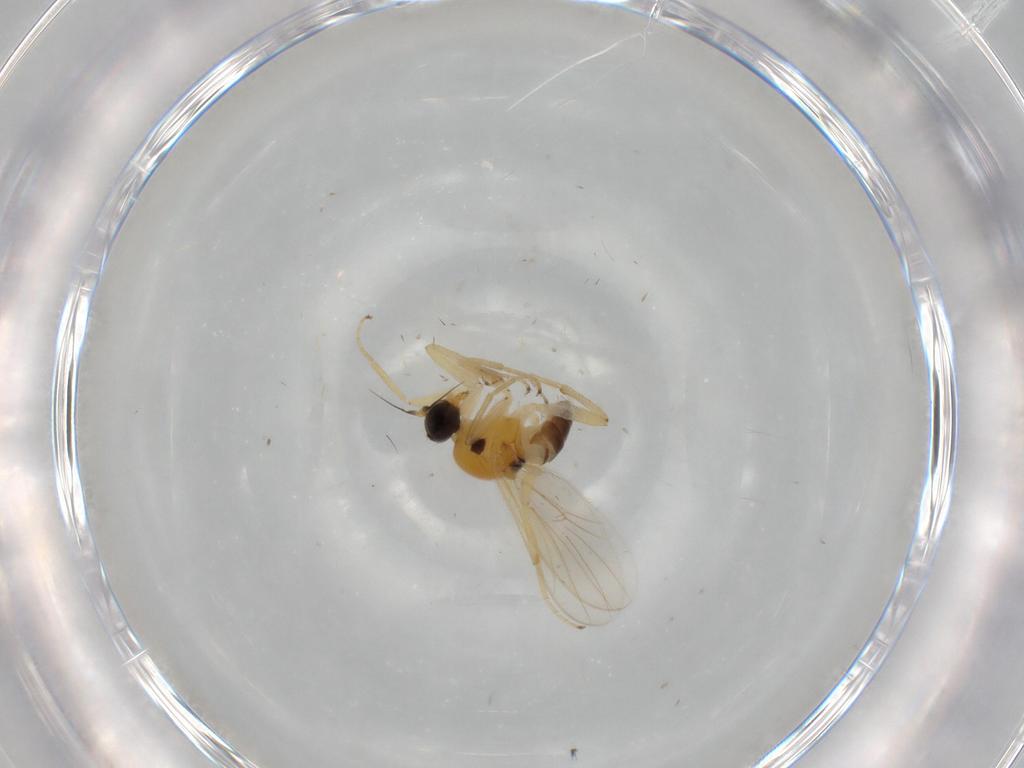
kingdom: Animalia
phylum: Arthropoda
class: Insecta
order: Diptera
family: Hybotidae
